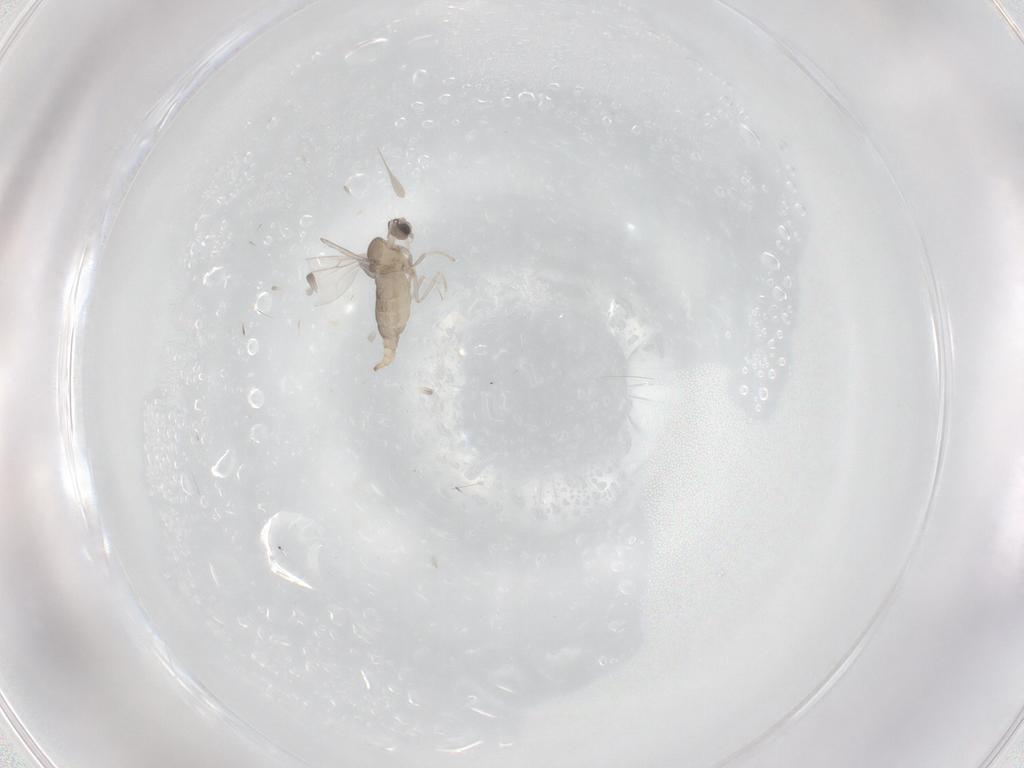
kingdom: Animalia
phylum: Arthropoda
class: Insecta
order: Diptera
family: Cecidomyiidae
